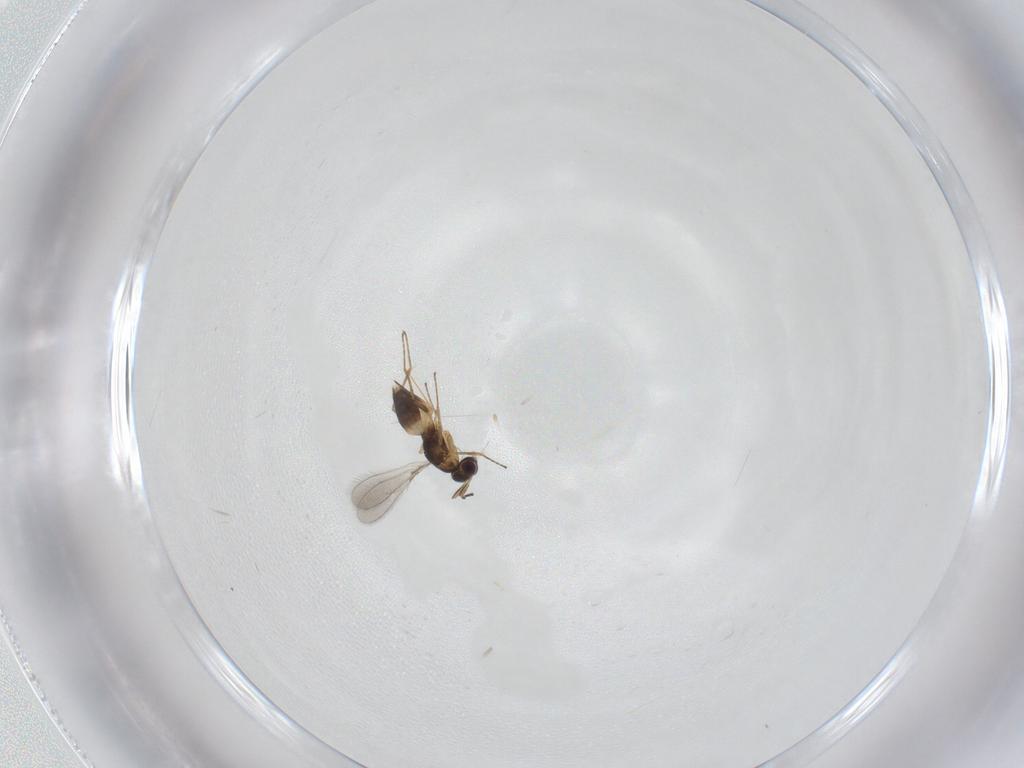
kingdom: Animalia
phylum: Arthropoda
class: Insecta
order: Hymenoptera
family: Mymaridae
